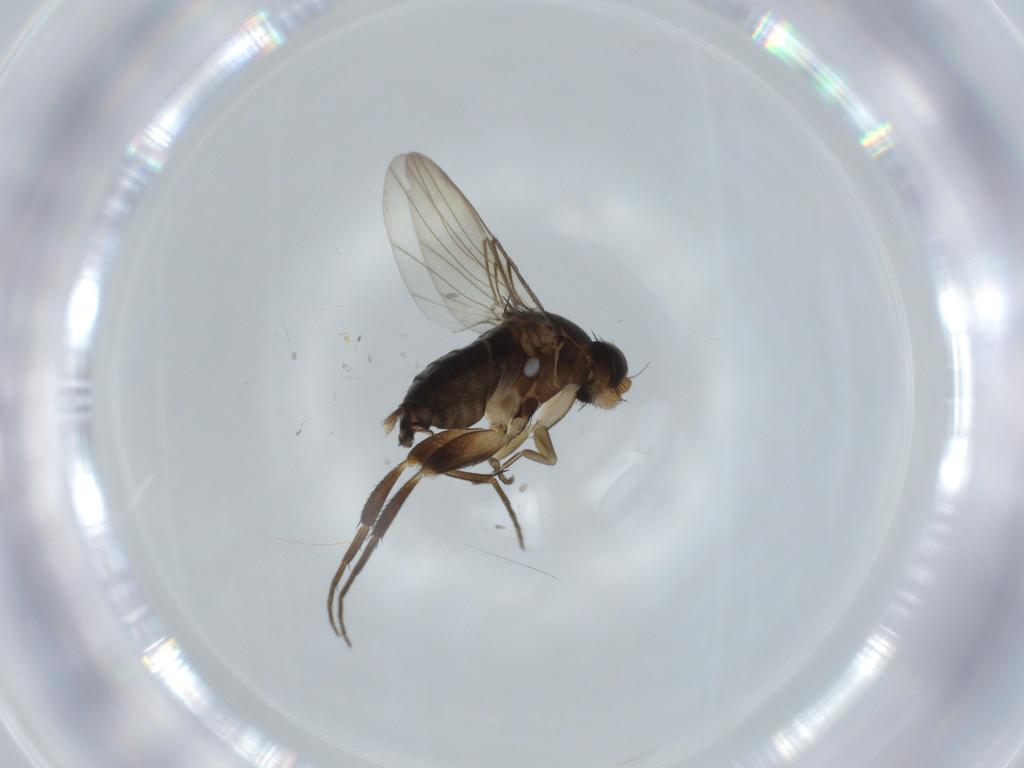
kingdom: Animalia
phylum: Arthropoda
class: Insecta
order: Diptera
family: Phoridae
